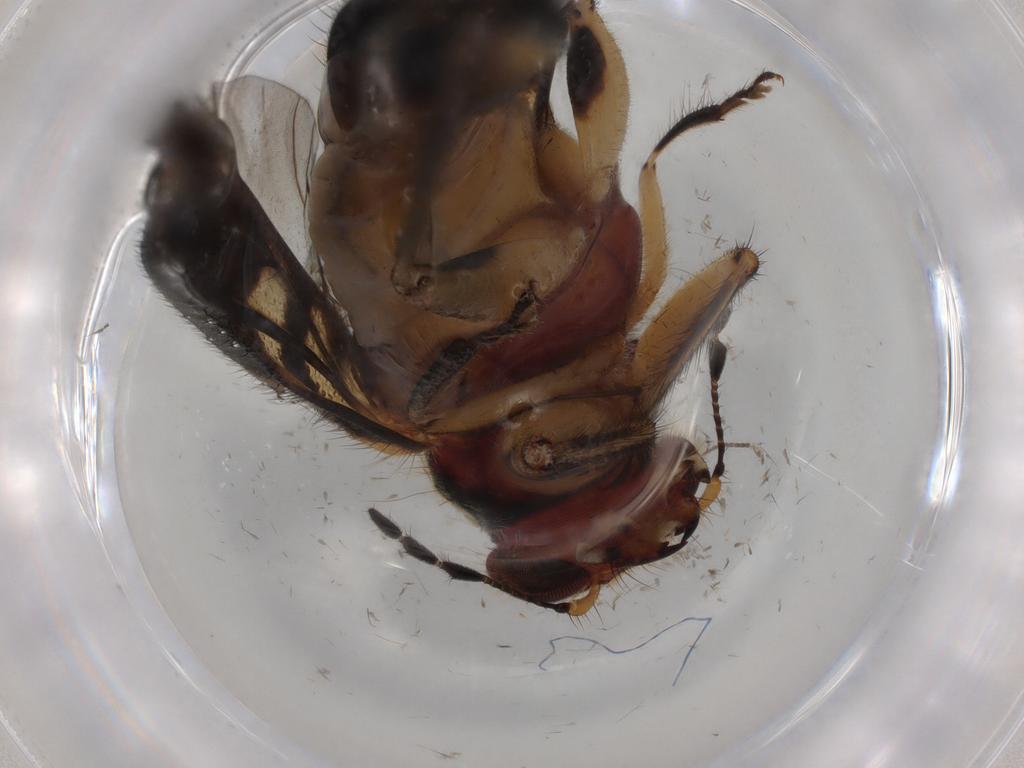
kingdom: Animalia
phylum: Arthropoda
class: Insecta
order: Coleoptera
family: Cleridae
